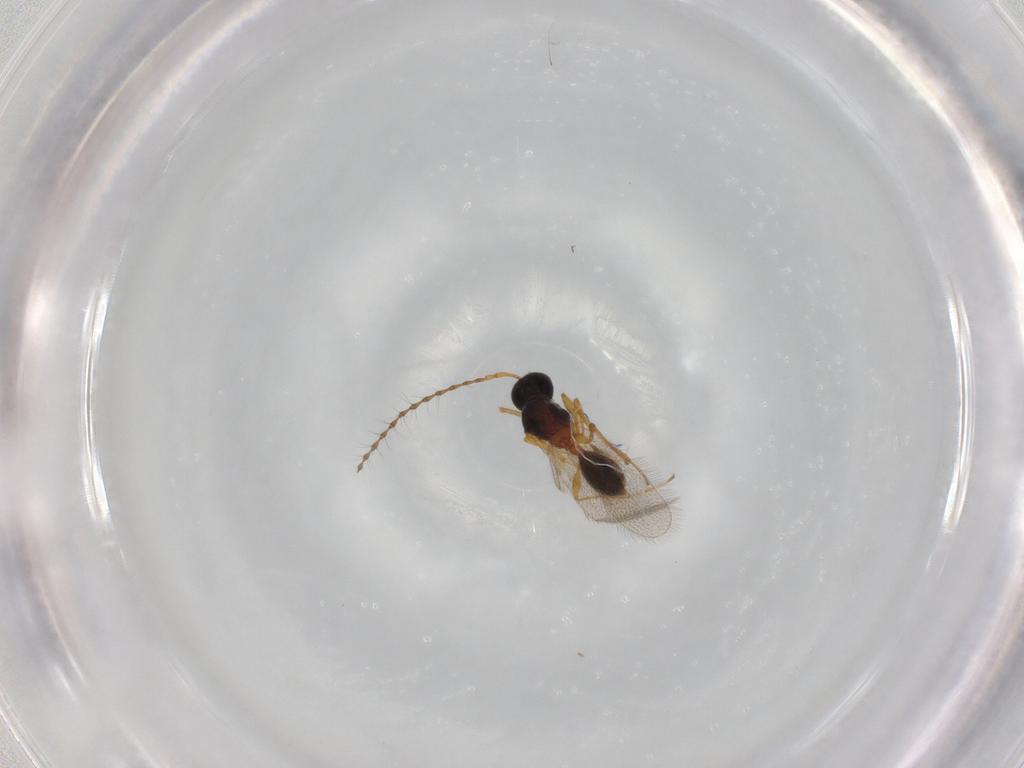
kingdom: Animalia
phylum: Arthropoda
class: Insecta
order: Hymenoptera
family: Diapriidae
